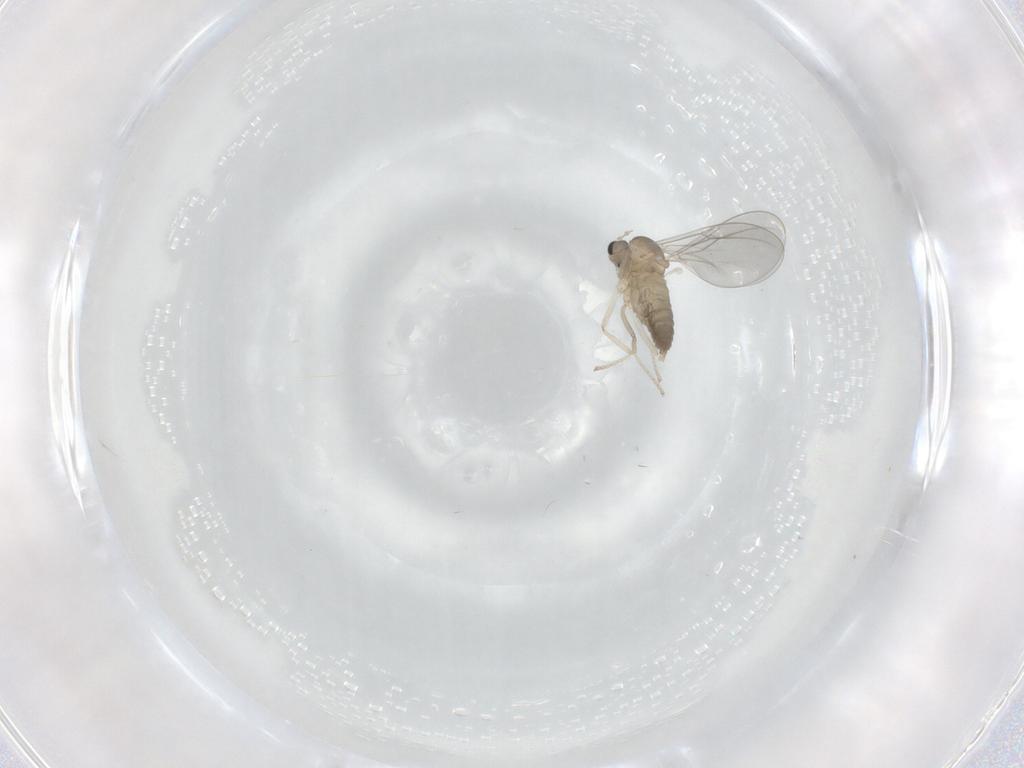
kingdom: Animalia
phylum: Arthropoda
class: Insecta
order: Diptera
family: Cecidomyiidae
